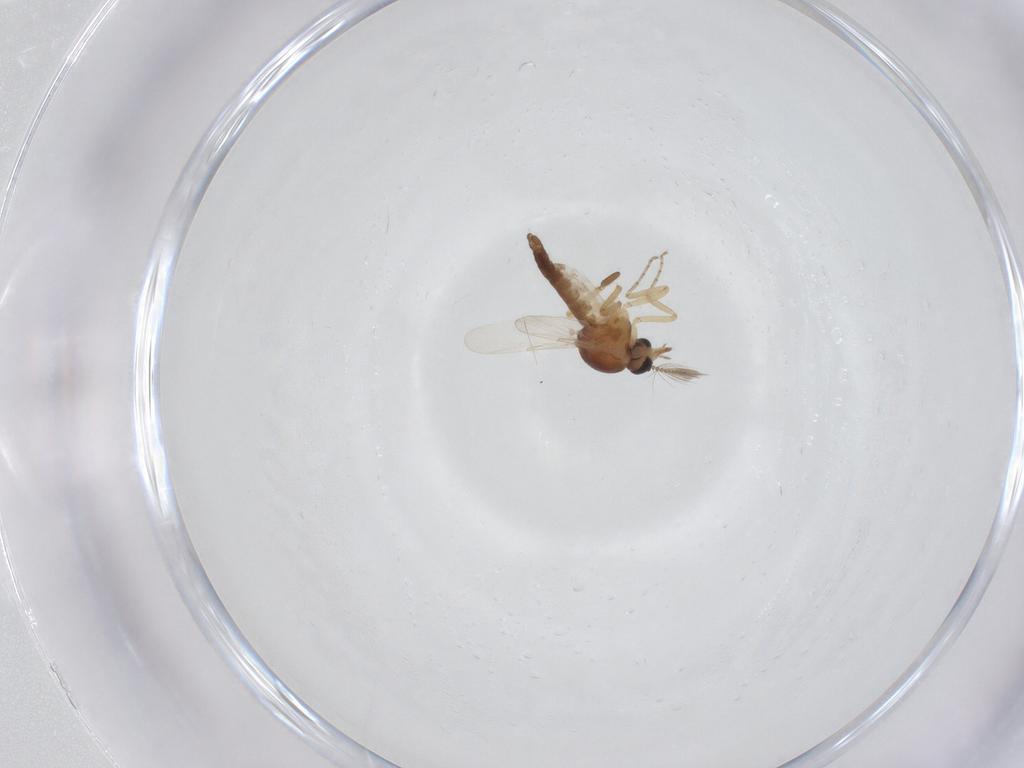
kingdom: Animalia
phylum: Arthropoda
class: Insecta
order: Diptera
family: Ceratopogonidae
